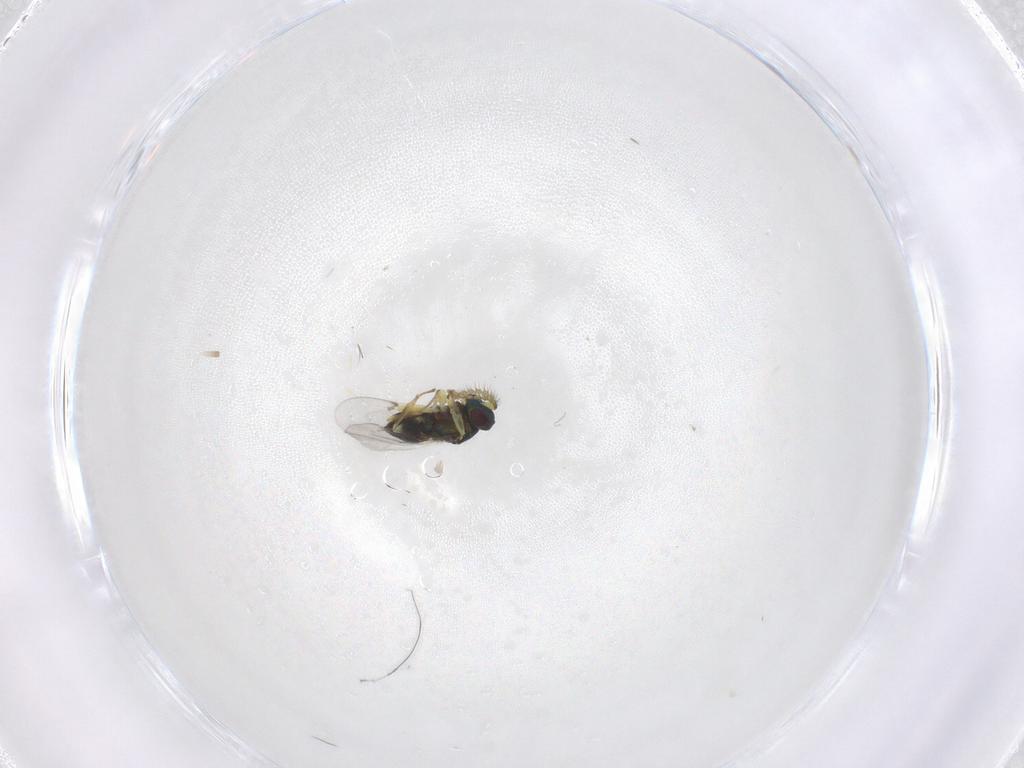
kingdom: Animalia
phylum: Arthropoda
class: Insecta
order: Hymenoptera
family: Encyrtidae
